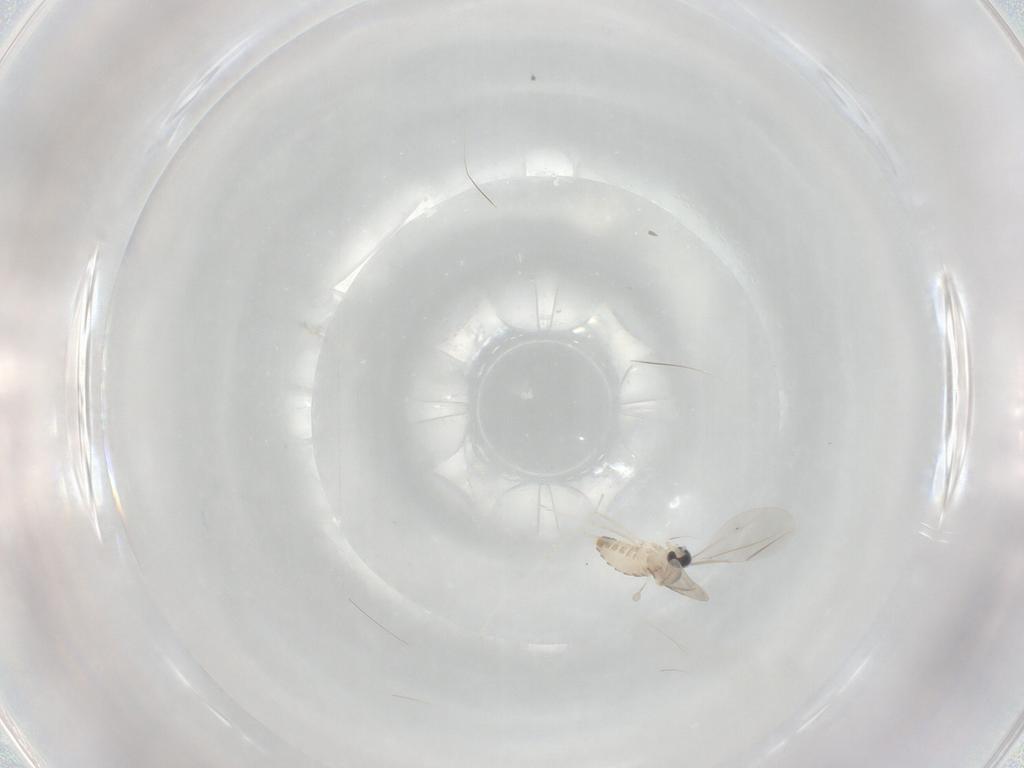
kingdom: Animalia
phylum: Arthropoda
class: Insecta
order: Diptera
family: Cecidomyiidae
